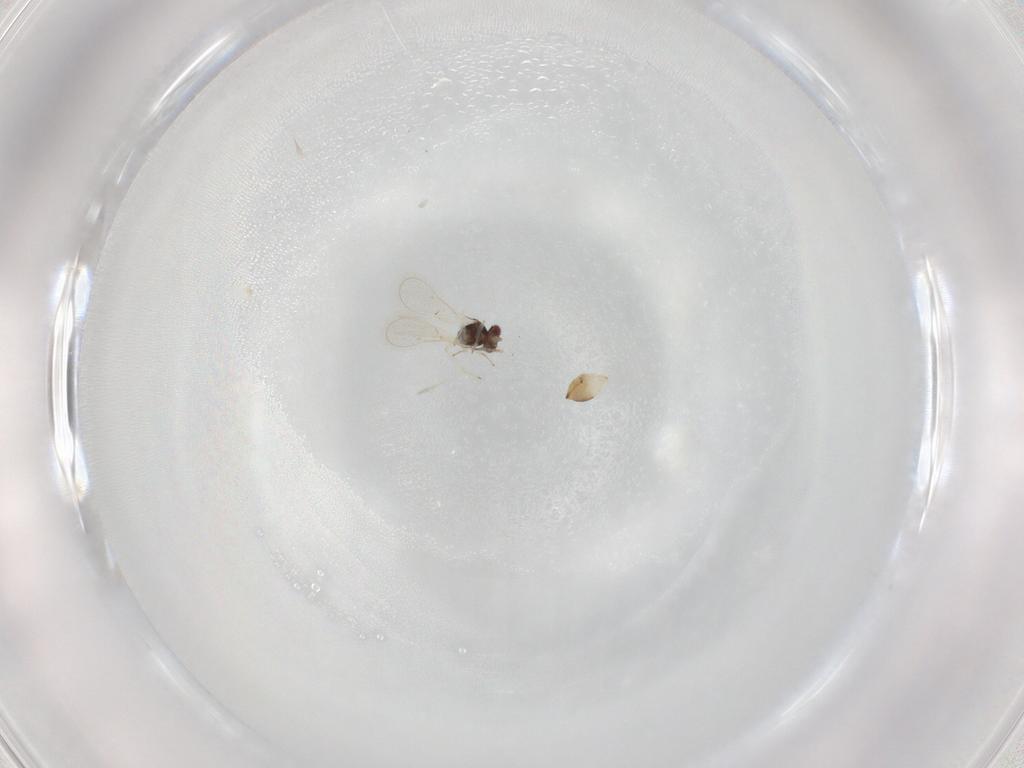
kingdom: Animalia
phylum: Arthropoda
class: Insecta
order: Hymenoptera
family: Eulophidae
